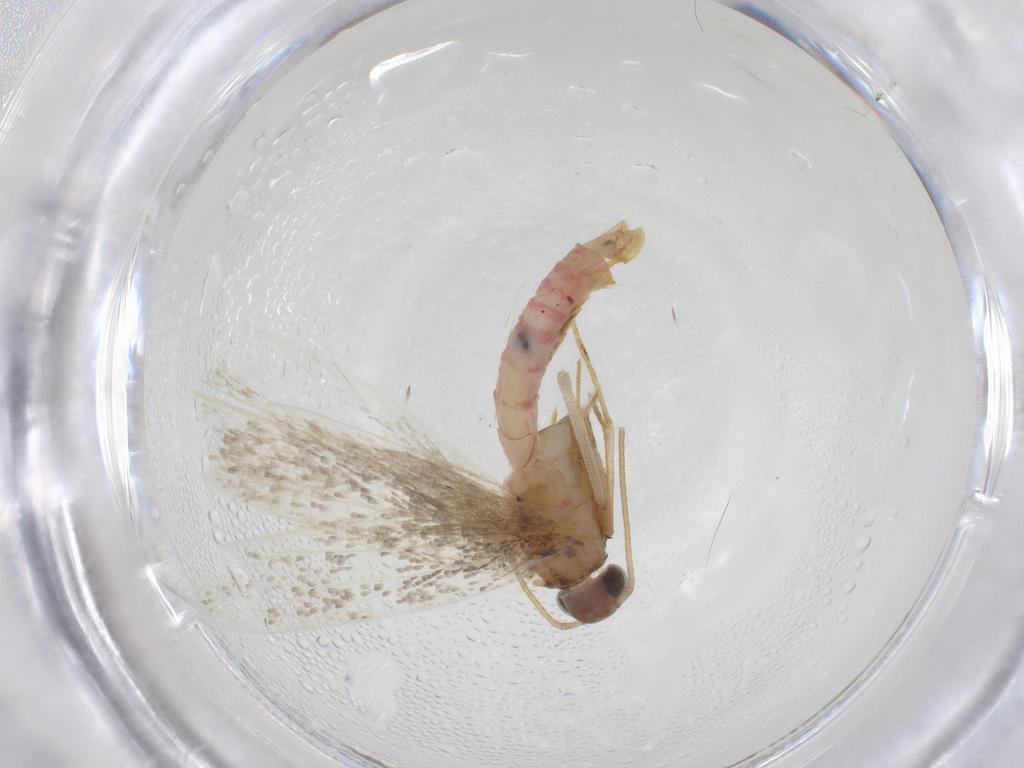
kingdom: Animalia
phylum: Arthropoda
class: Insecta
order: Lepidoptera
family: Crambidae
